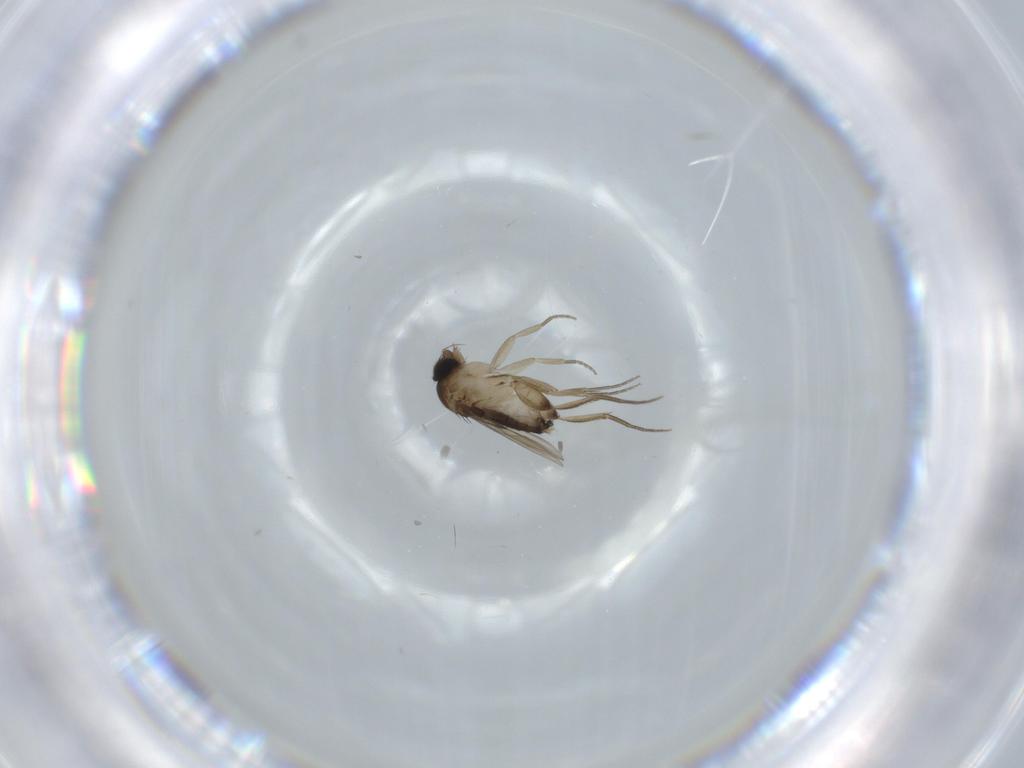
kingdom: Animalia
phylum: Arthropoda
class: Insecta
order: Diptera
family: Phoridae
